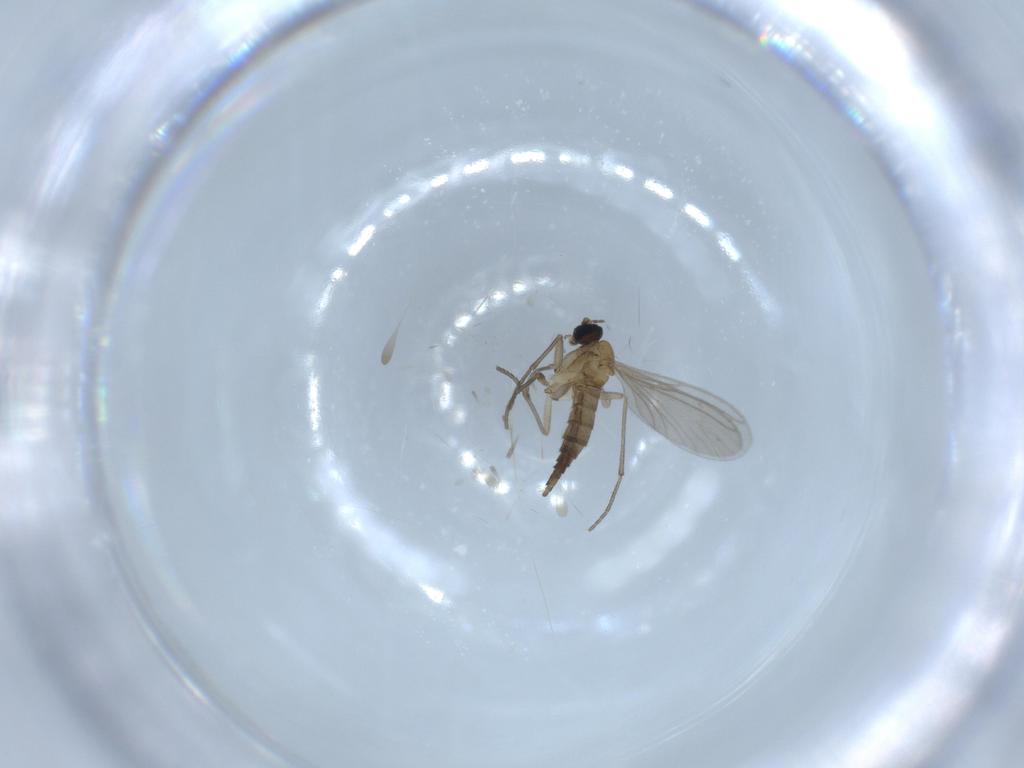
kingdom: Animalia
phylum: Arthropoda
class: Insecta
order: Diptera
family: Sciaridae
